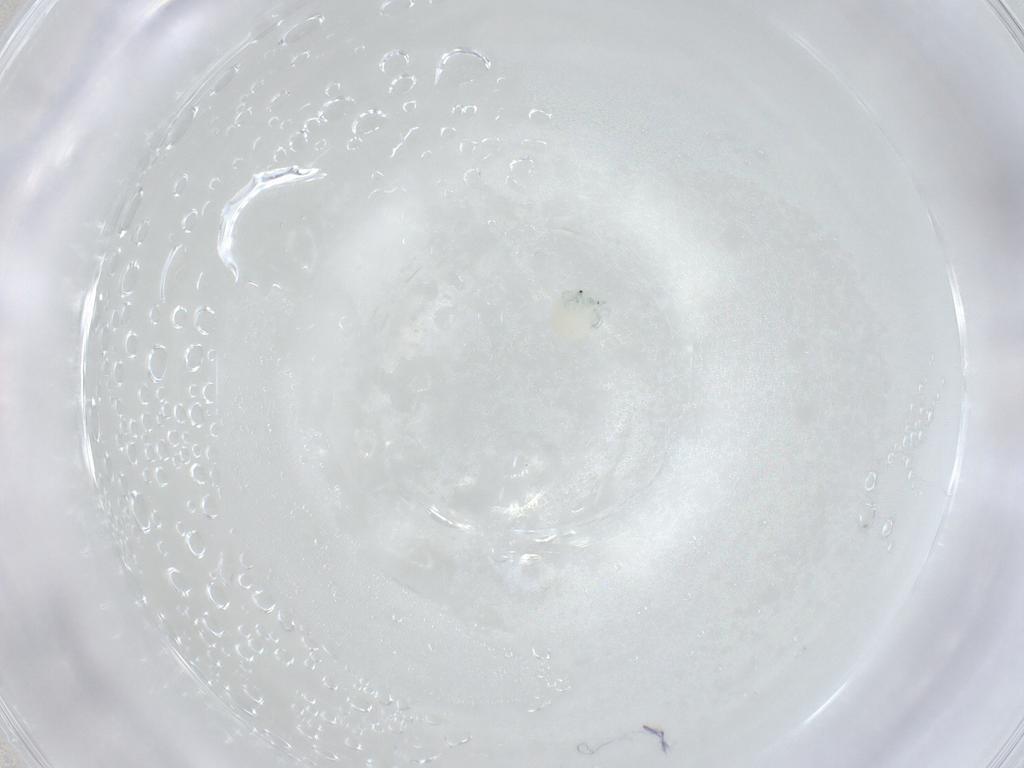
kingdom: Animalia
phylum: Arthropoda
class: Arachnida
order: Trombidiformes
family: Arrenuridae
